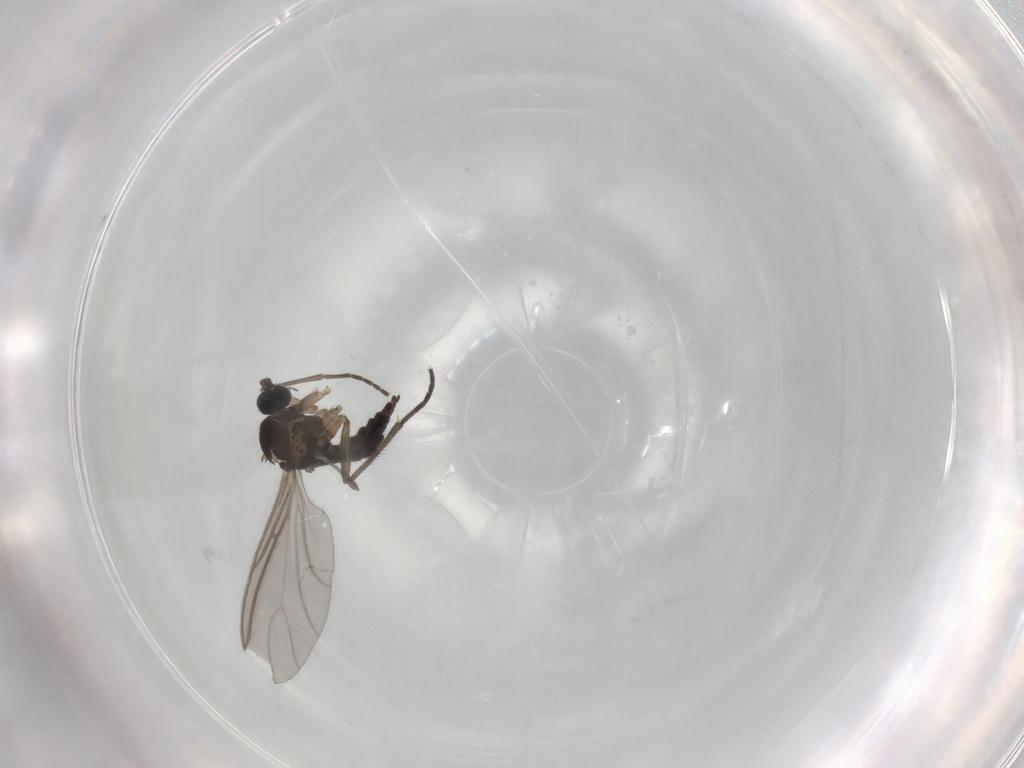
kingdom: Animalia
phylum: Arthropoda
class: Insecta
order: Diptera
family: Sciaridae
